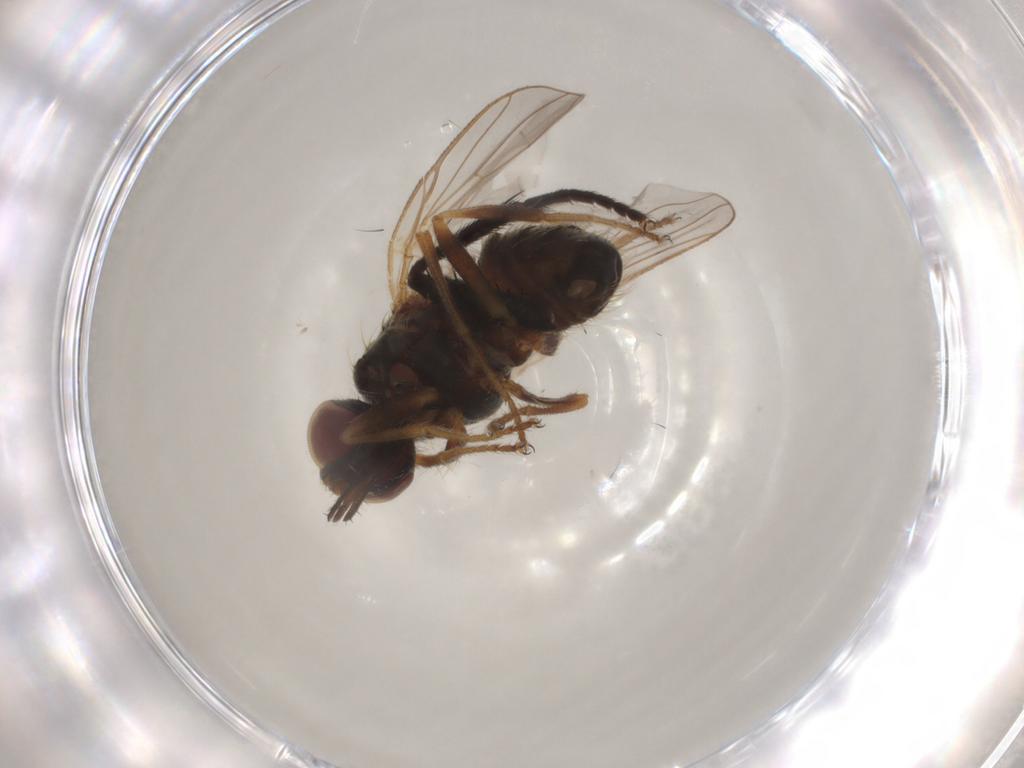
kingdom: Animalia
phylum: Arthropoda
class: Insecta
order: Diptera
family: Muscidae
